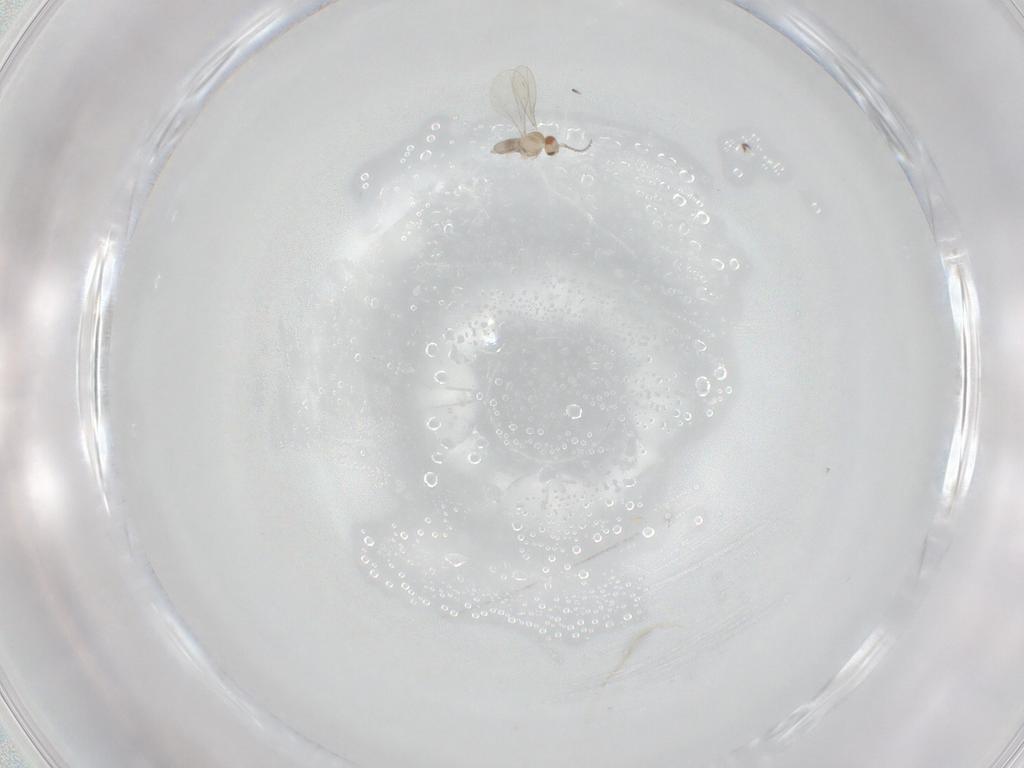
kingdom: Animalia
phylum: Arthropoda
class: Insecta
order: Diptera
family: Cecidomyiidae
